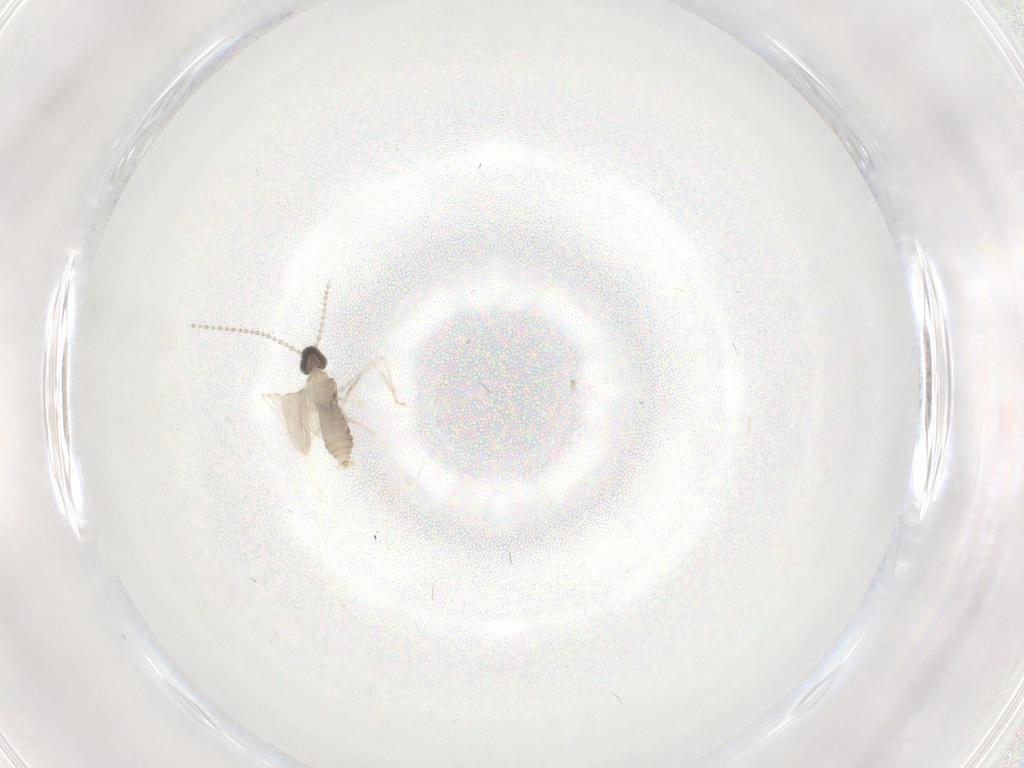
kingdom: Animalia
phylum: Arthropoda
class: Insecta
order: Diptera
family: Cecidomyiidae
